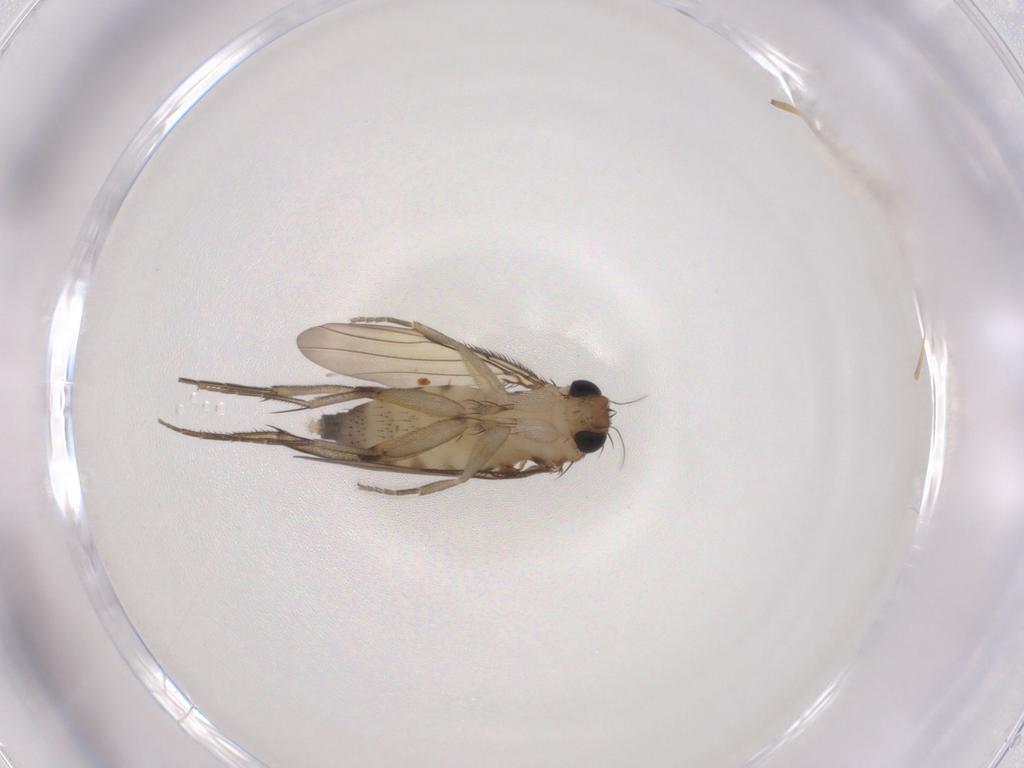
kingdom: Animalia
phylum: Arthropoda
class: Insecta
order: Diptera
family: Phoridae
